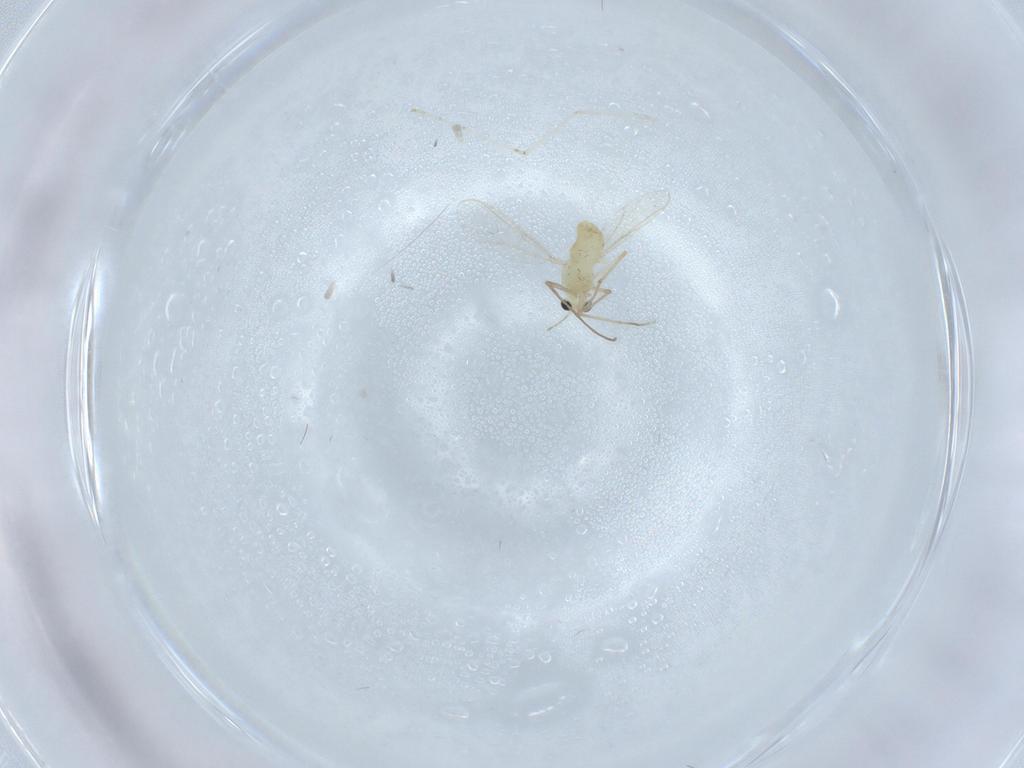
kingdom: Animalia
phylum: Arthropoda
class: Insecta
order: Diptera
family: Chironomidae
